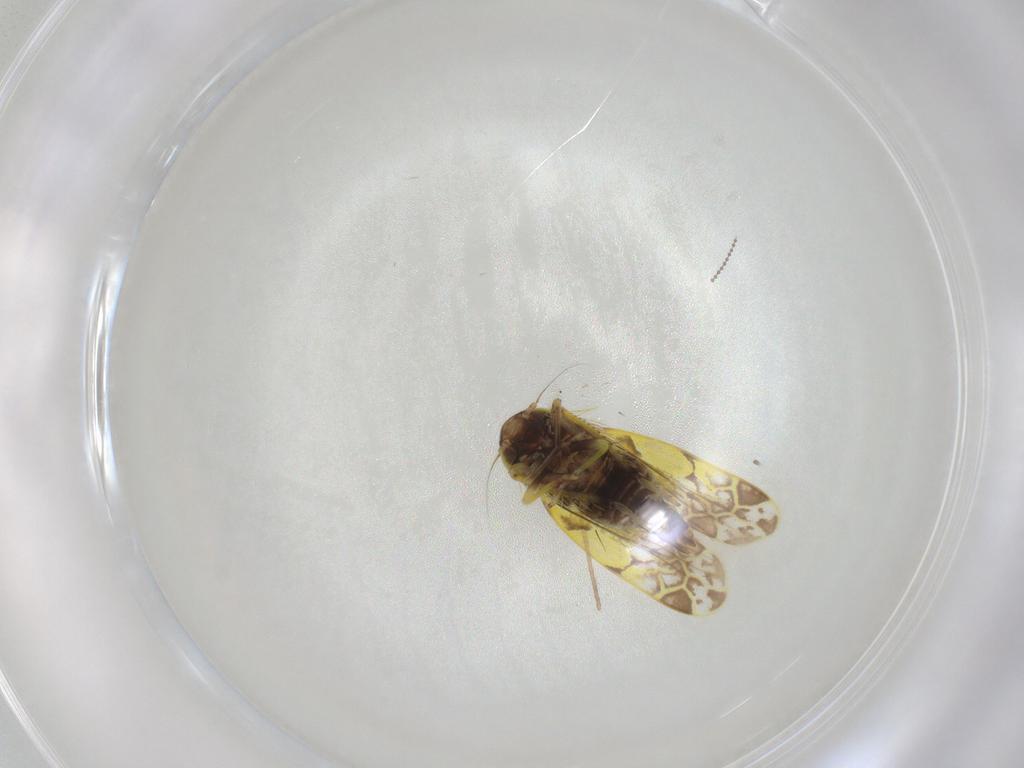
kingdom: Animalia
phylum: Arthropoda
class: Insecta
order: Hemiptera
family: Cicadellidae
